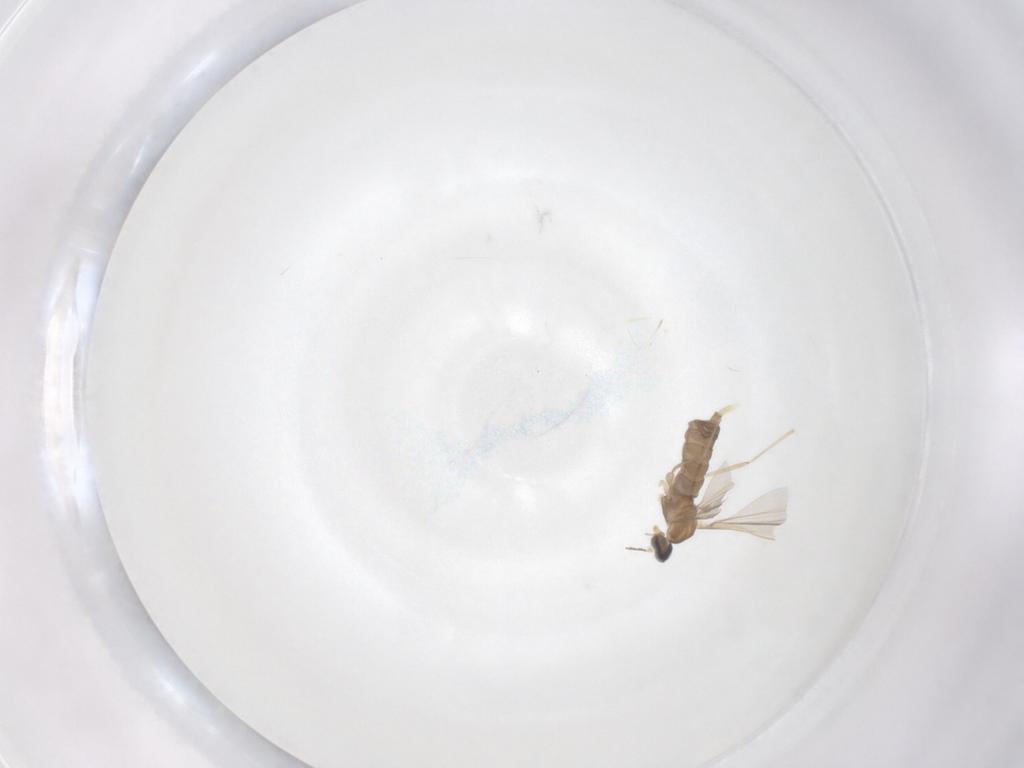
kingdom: Animalia
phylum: Arthropoda
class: Insecta
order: Diptera
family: Cecidomyiidae
